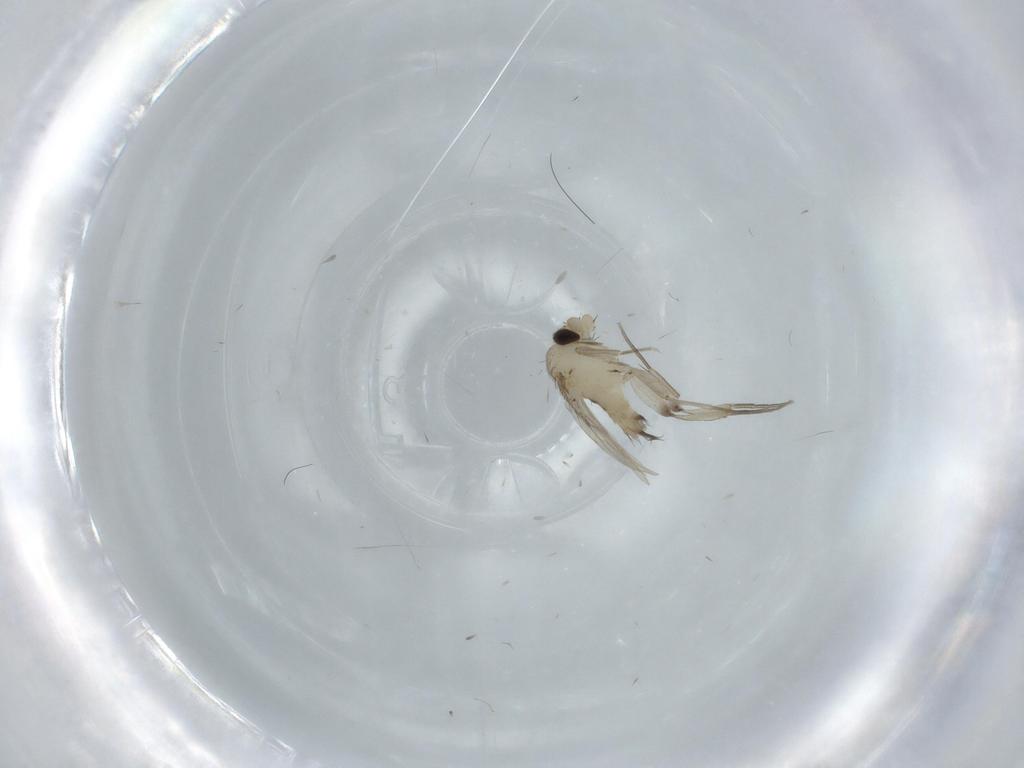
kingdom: Animalia
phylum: Arthropoda
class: Insecta
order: Diptera
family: Phoridae
